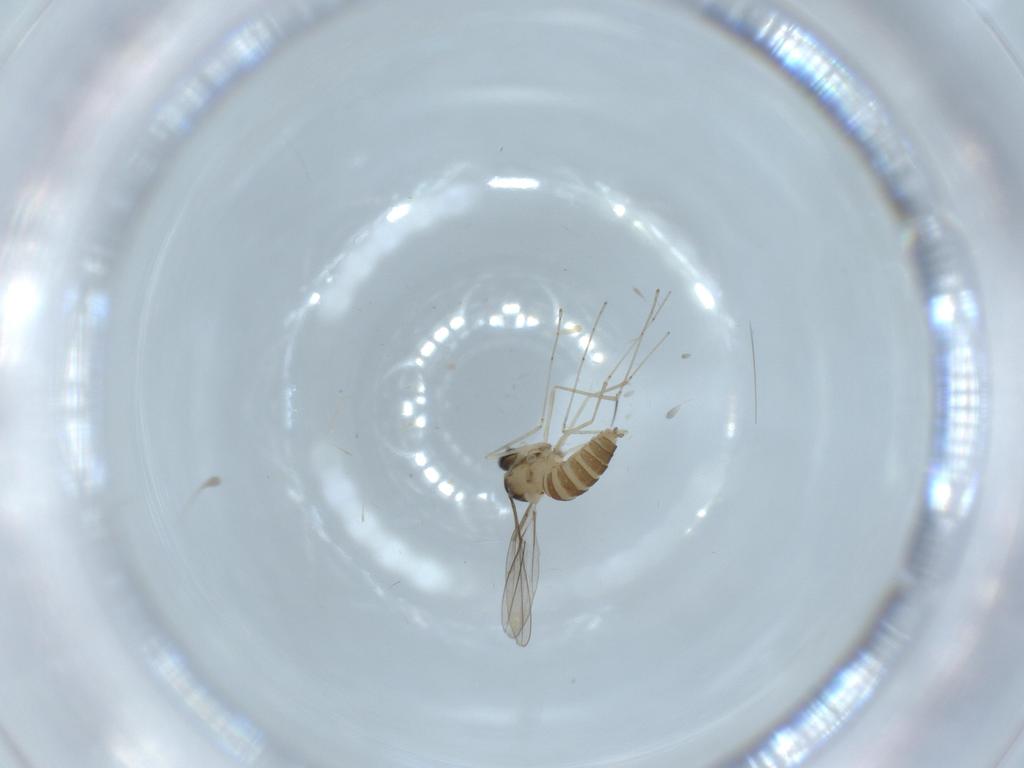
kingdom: Animalia
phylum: Arthropoda
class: Insecta
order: Diptera
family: Cecidomyiidae
